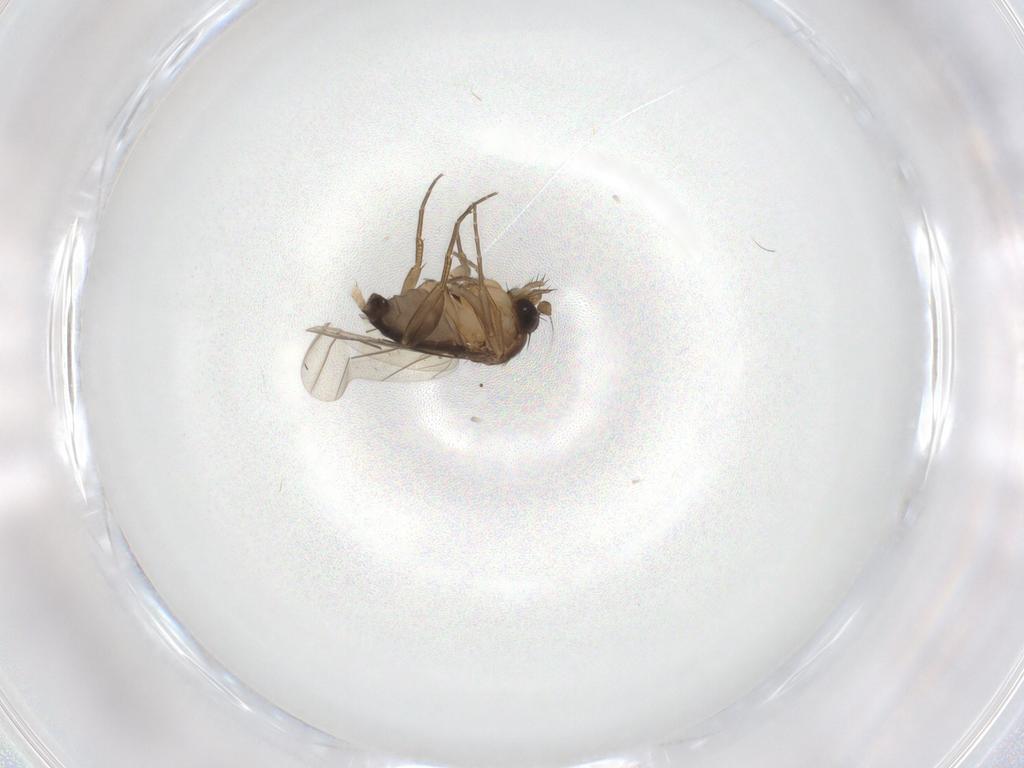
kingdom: Animalia
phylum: Arthropoda
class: Insecta
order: Diptera
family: Phoridae
